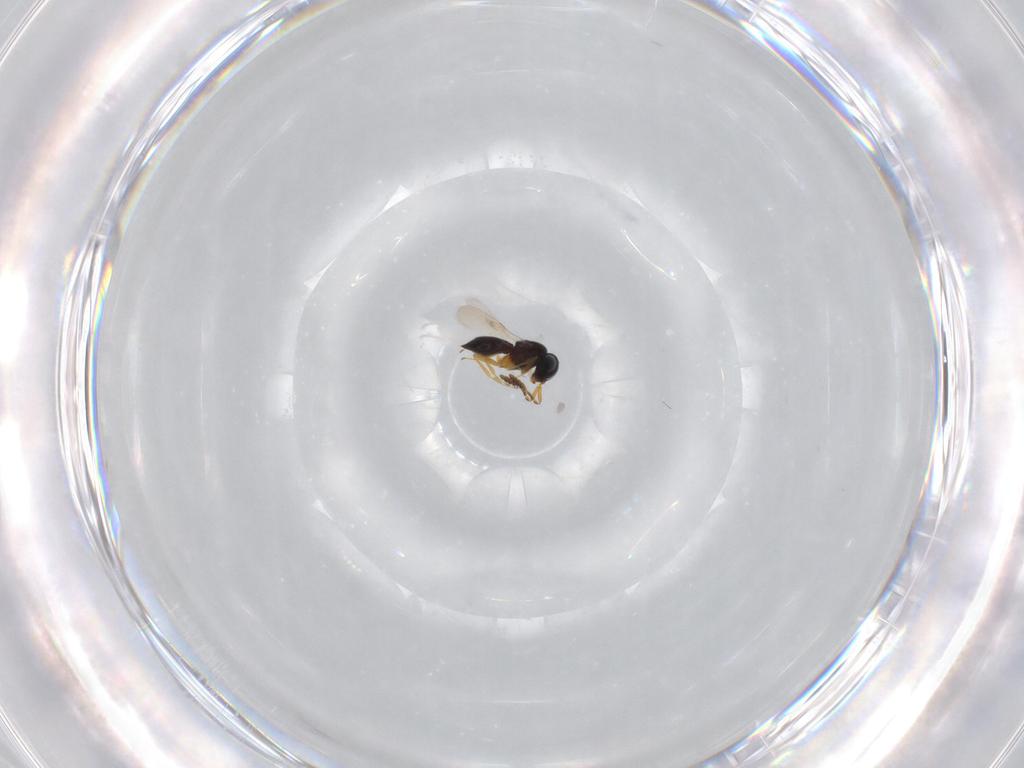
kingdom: Animalia
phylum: Arthropoda
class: Insecta
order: Hymenoptera
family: Scelionidae
